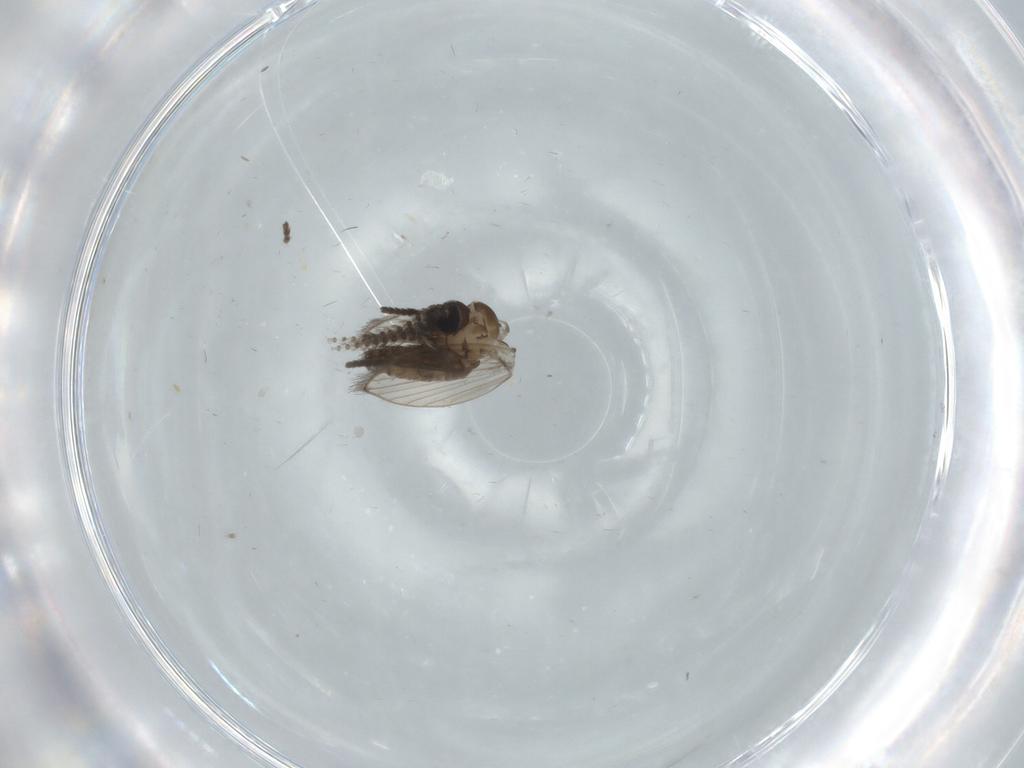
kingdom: Animalia
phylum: Arthropoda
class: Insecta
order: Diptera
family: Psychodidae
